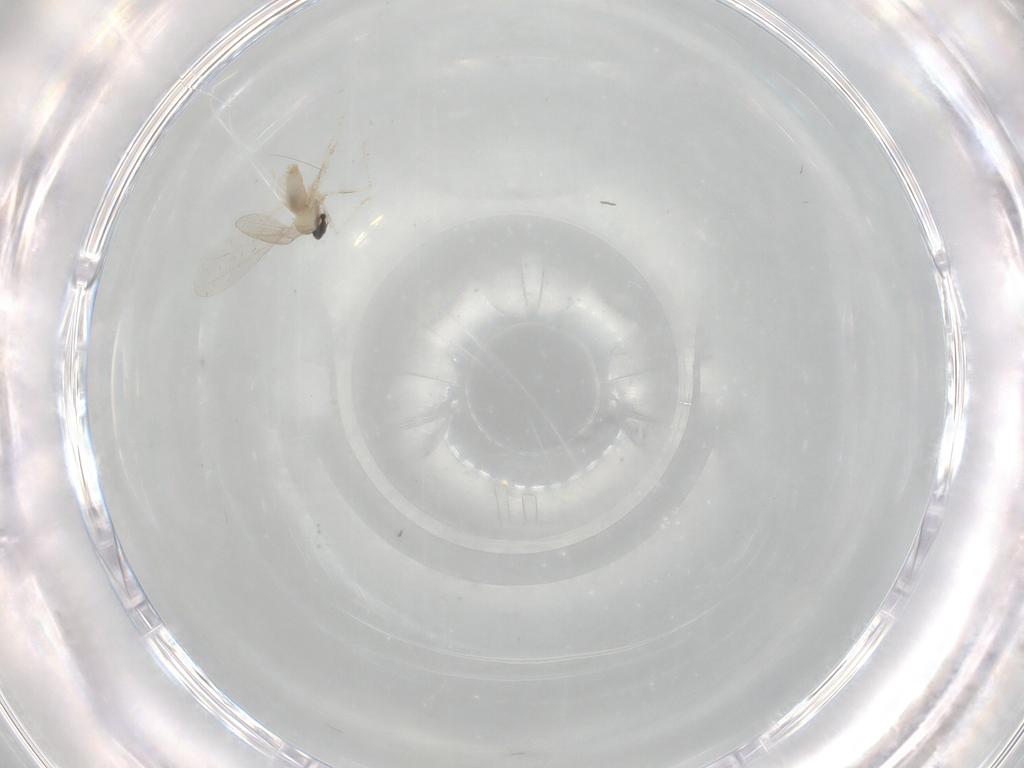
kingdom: Animalia
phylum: Arthropoda
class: Insecta
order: Diptera
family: Cecidomyiidae
